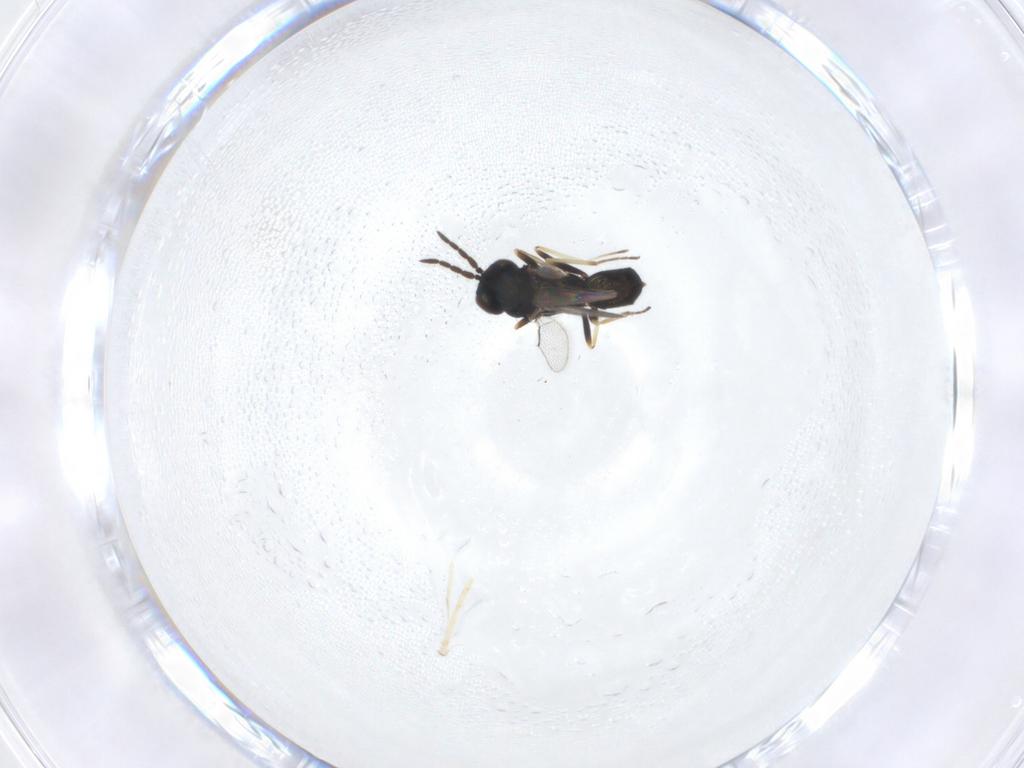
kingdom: Animalia
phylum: Arthropoda
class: Insecta
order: Hymenoptera
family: Eulophidae
